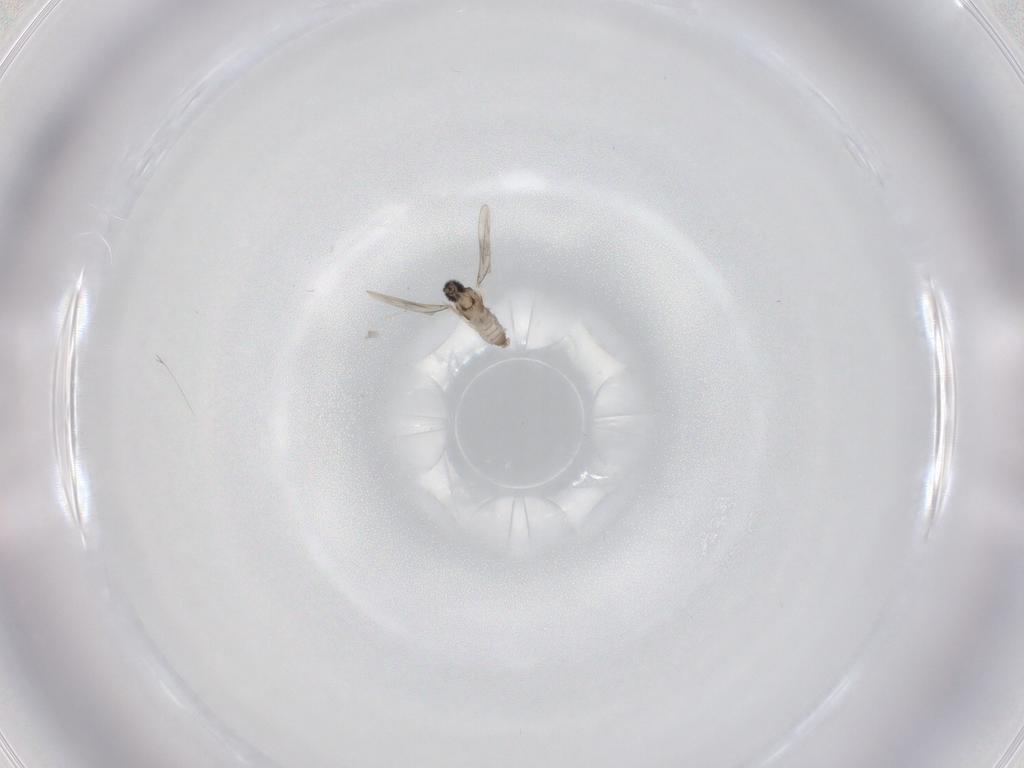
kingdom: Animalia
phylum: Arthropoda
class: Insecta
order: Diptera
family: Cecidomyiidae
